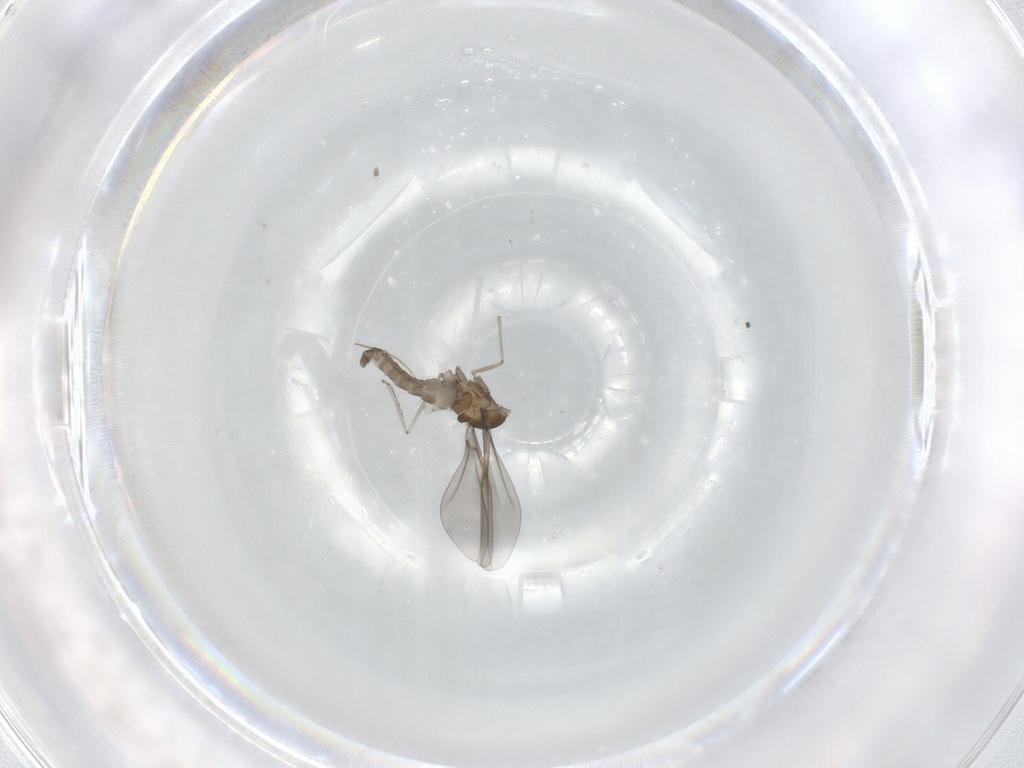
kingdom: Animalia
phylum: Arthropoda
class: Insecta
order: Diptera
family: Chironomidae
